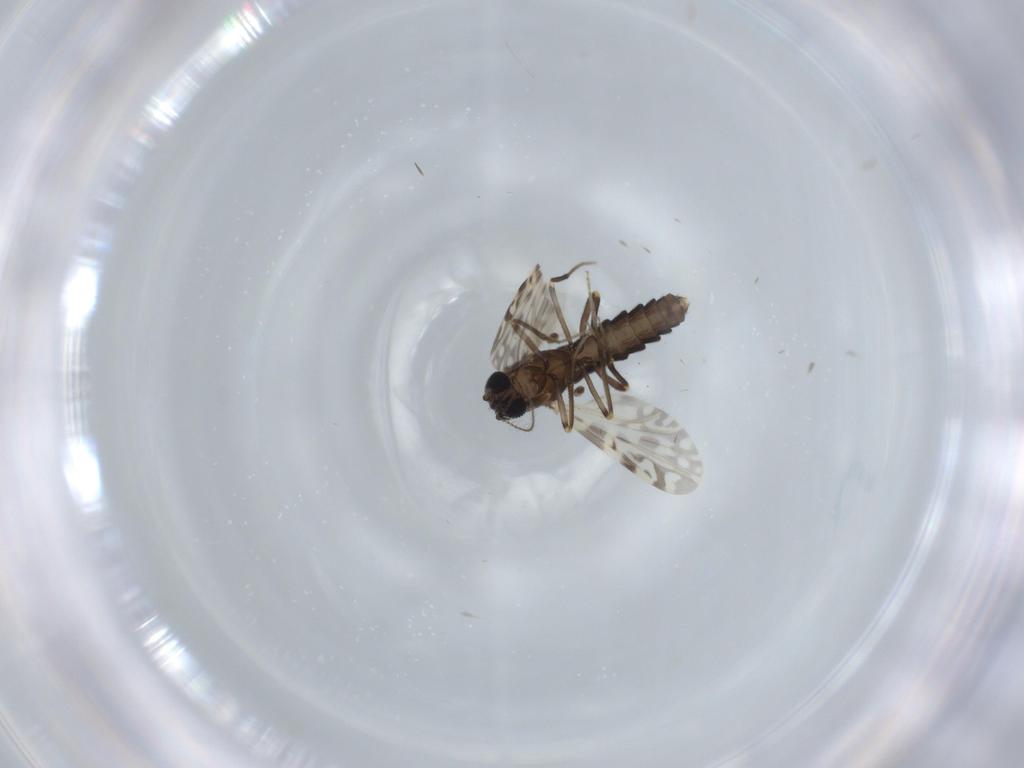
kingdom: Animalia
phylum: Arthropoda
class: Insecta
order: Diptera
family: Ceratopogonidae
